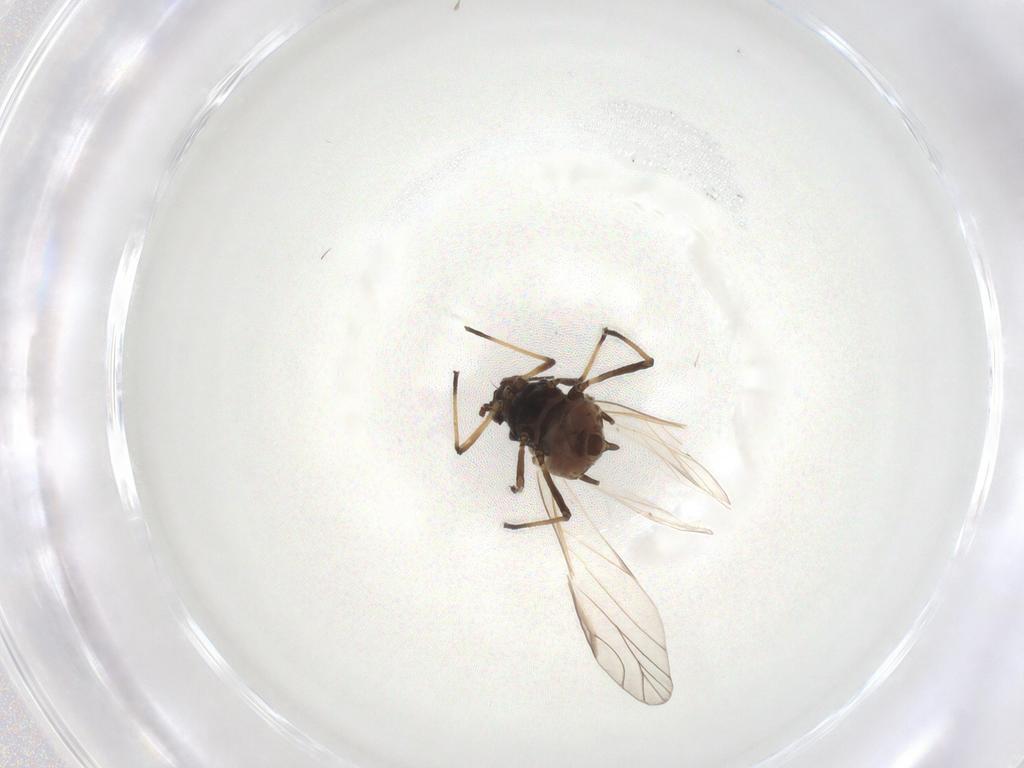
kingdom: Animalia
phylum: Arthropoda
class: Insecta
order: Hemiptera
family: Aphididae
